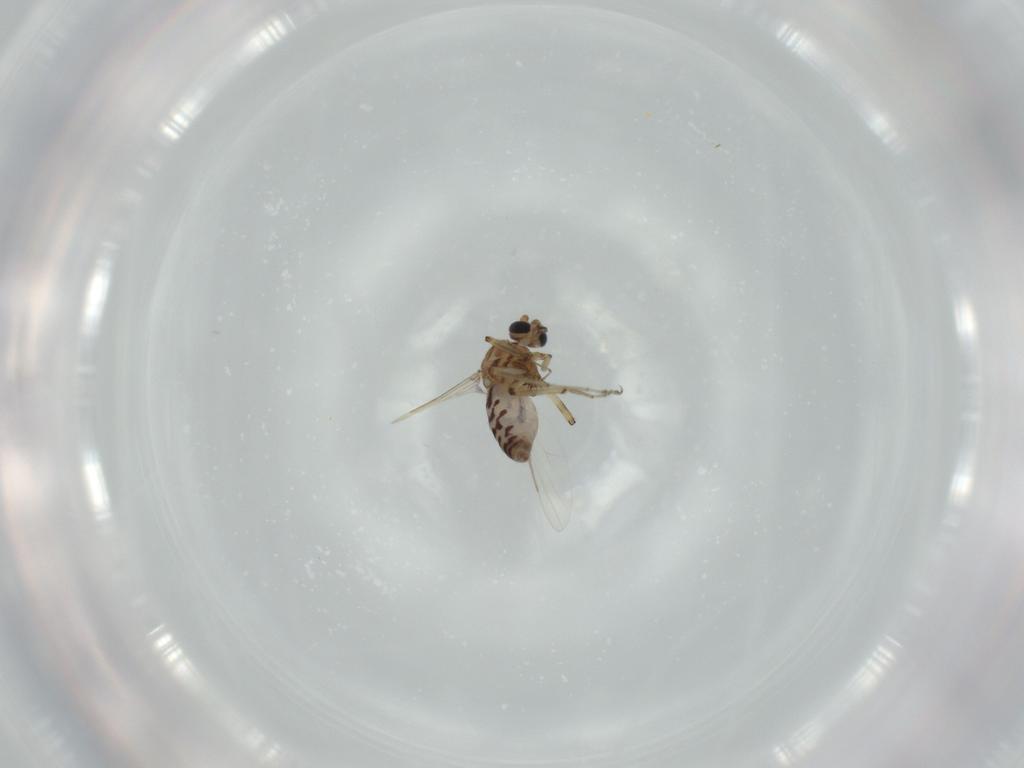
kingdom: Animalia
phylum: Arthropoda
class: Insecta
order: Diptera
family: Ceratopogonidae
